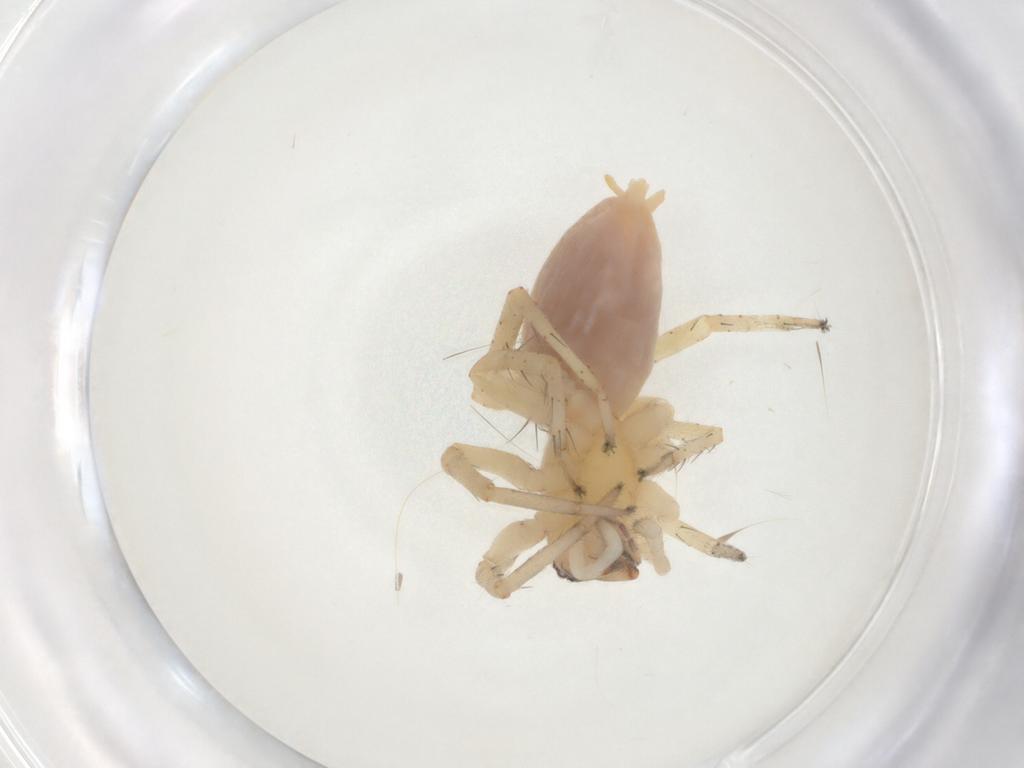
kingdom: Animalia
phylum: Arthropoda
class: Arachnida
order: Araneae
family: Anyphaenidae
